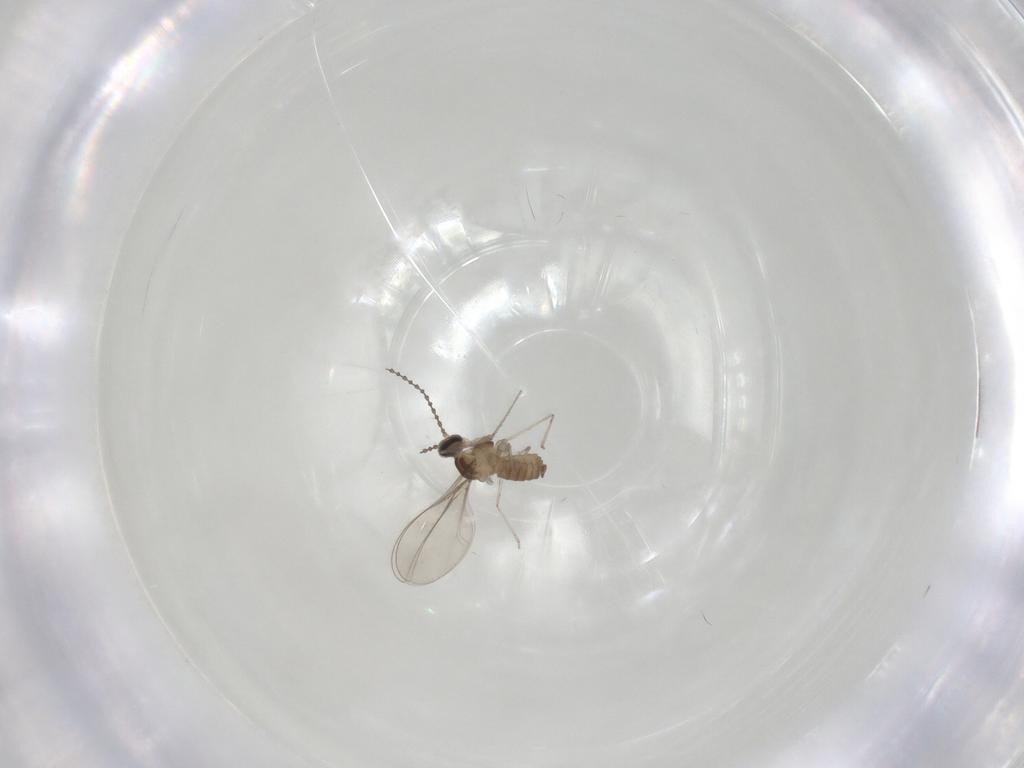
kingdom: Animalia
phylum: Arthropoda
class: Insecta
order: Diptera
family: Cecidomyiidae
